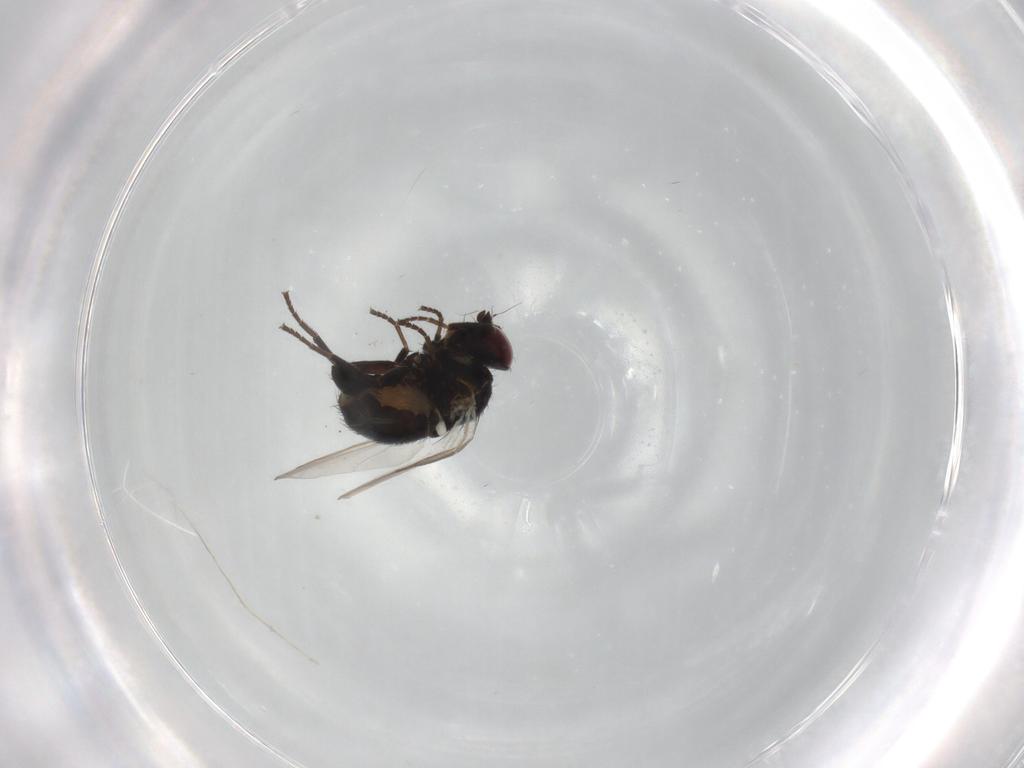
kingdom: Animalia
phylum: Arthropoda
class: Insecta
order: Diptera
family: Agromyzidae
